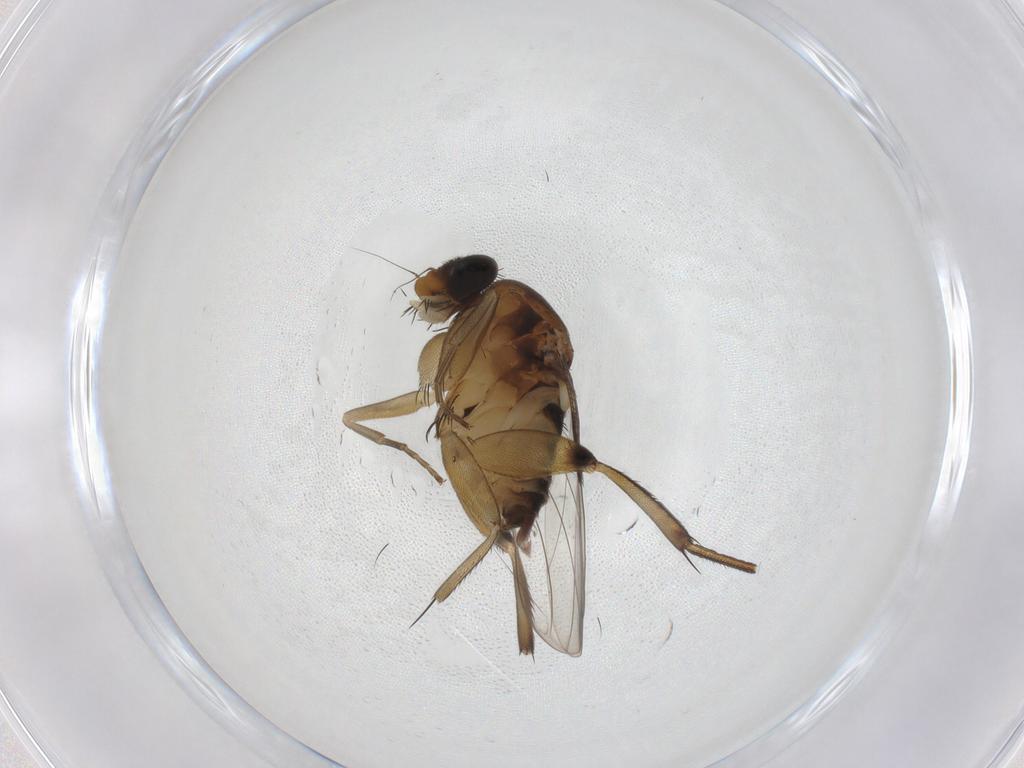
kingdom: Animalia
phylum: Arthropoda
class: Insecta
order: Diptera
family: Phoridae
